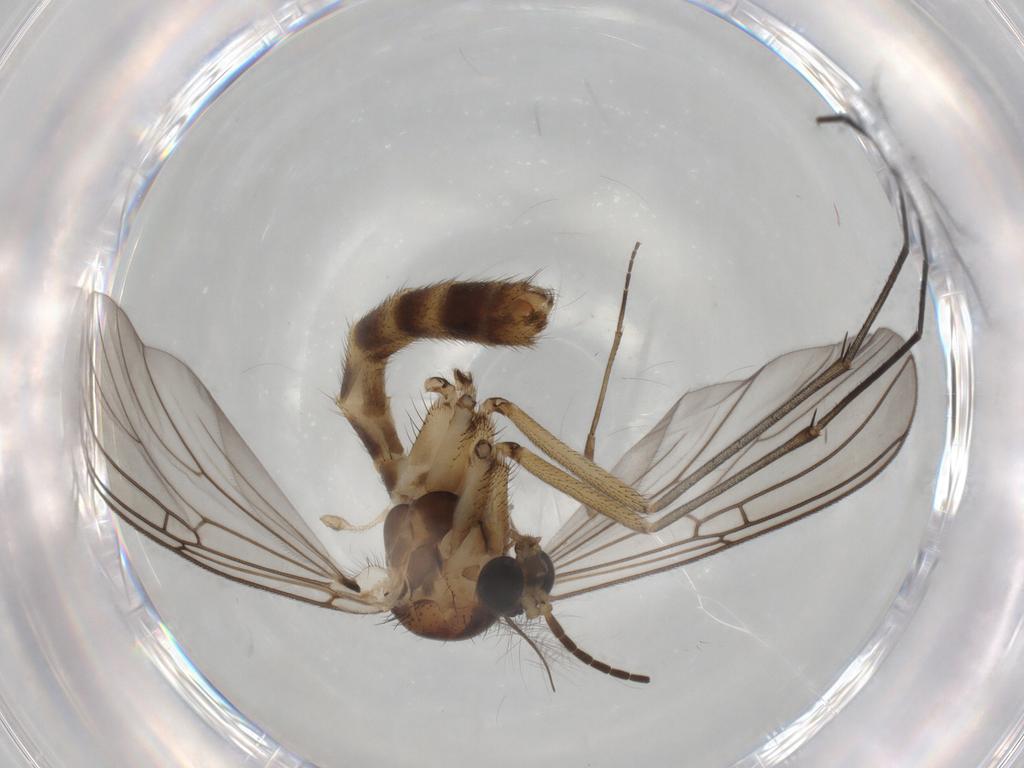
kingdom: Animalia
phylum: Arthropoda
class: Insecta
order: Diptera
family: Mycetophilidae
